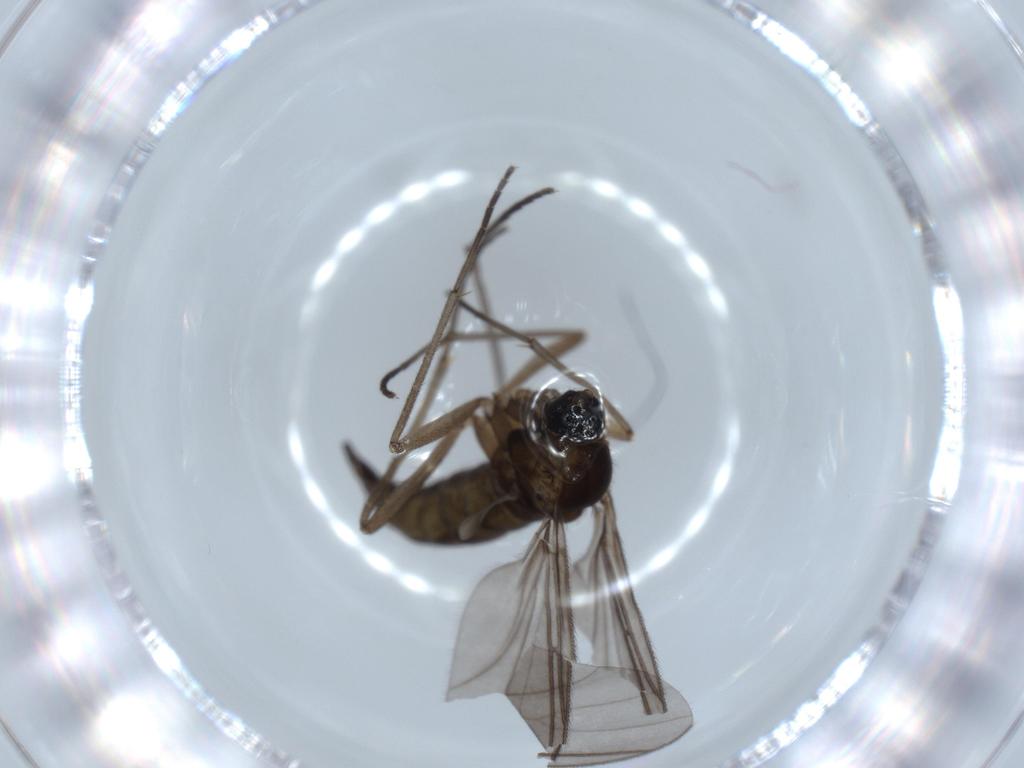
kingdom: Animalia
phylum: Arthropoda
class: Insecta
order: Diptera
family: Sciaridae
